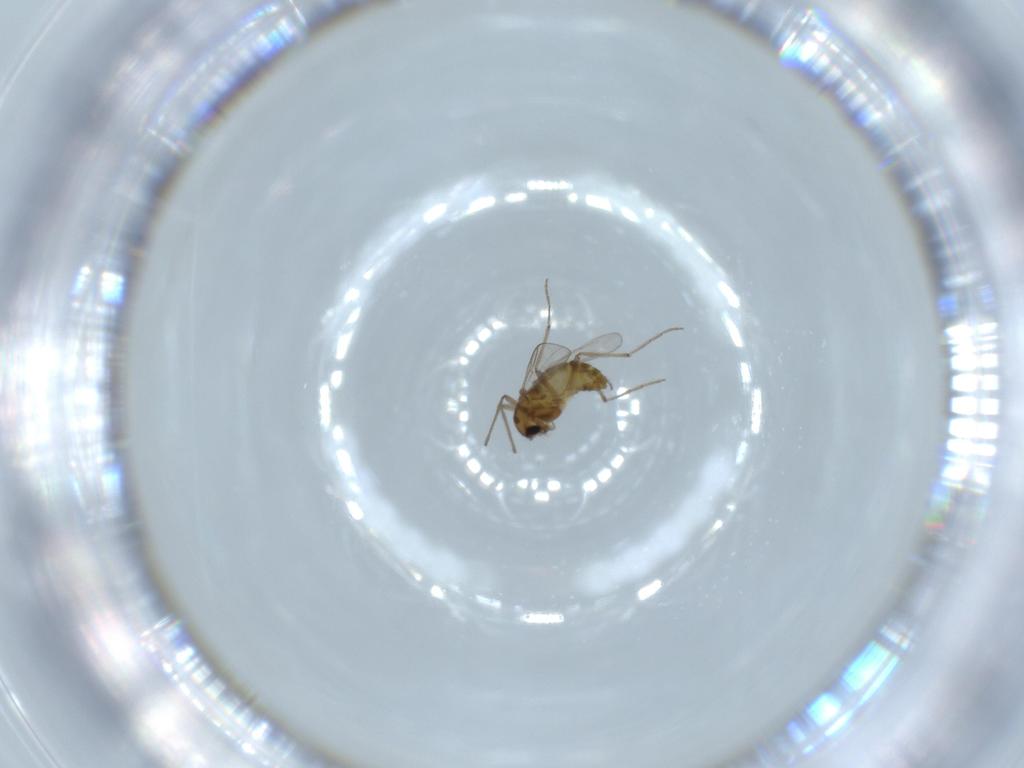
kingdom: Animalia
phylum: Arthropoda
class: Insecta
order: Diptera
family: Chironomidae
